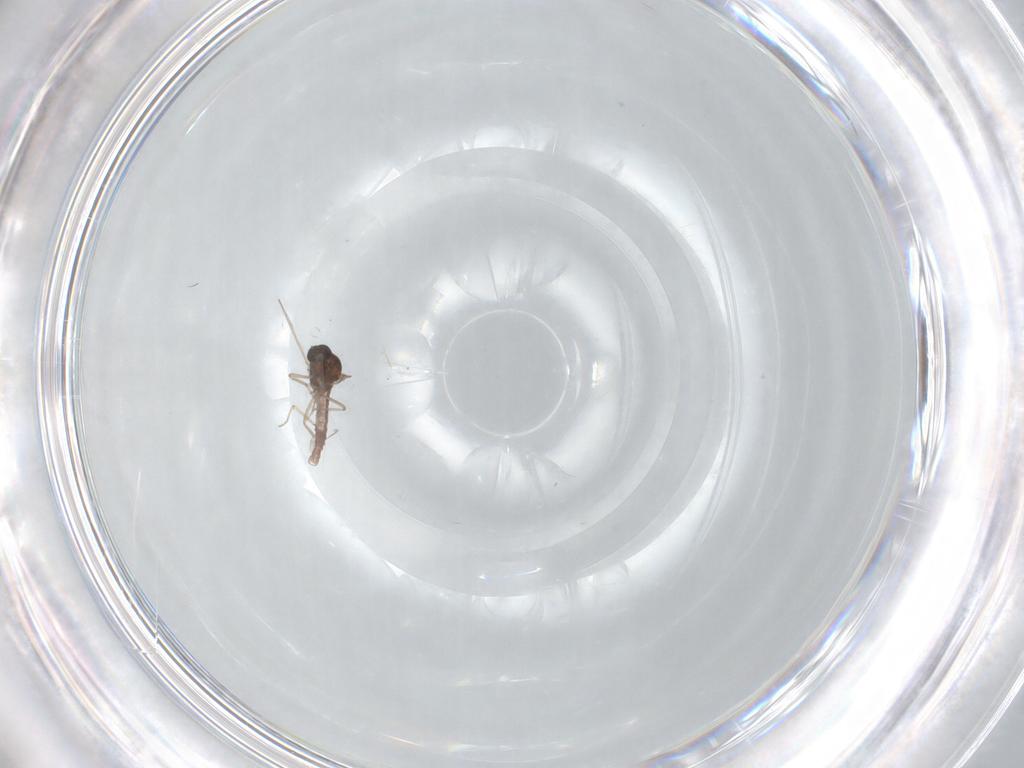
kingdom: Animalia
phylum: Arthropoda
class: Insecta
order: Diptera
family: Ceratopogonidae
